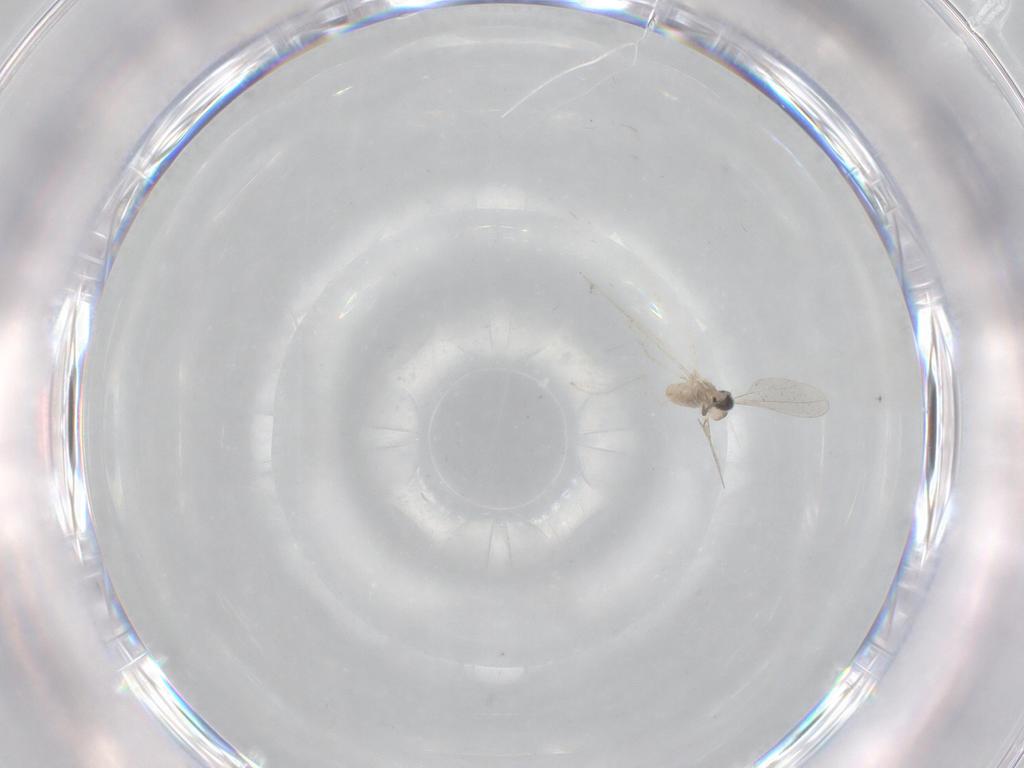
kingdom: Animalia
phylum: Arthropoda
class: Insecta
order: Diptera
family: Cecidomyiidae
